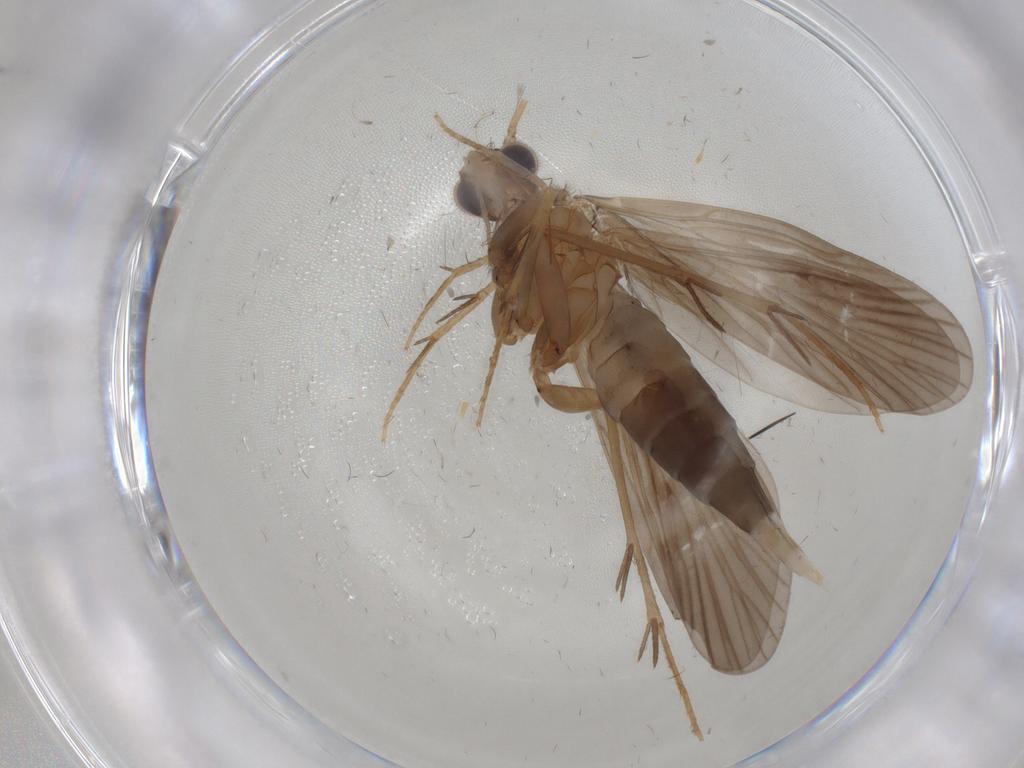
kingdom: Animalia
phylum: Arthropoda
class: Insecta
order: Trichoptera
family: Philopotamidae
